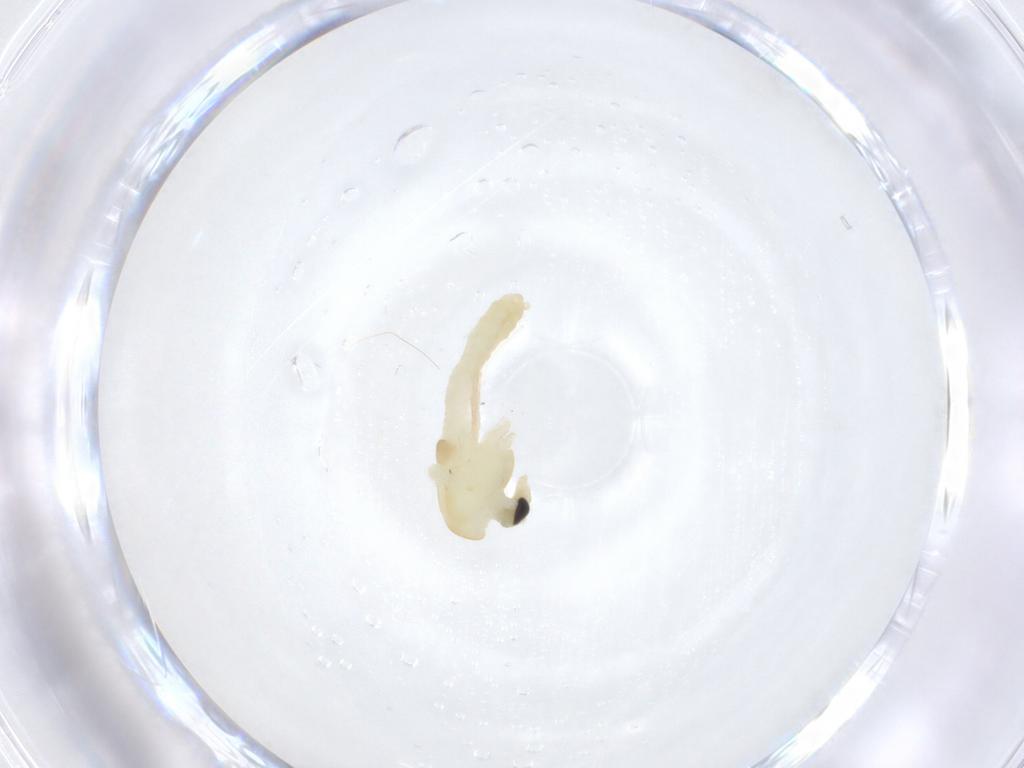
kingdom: Animalia
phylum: Arthropoda
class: Insecta
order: Diptera
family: Chironomidae
